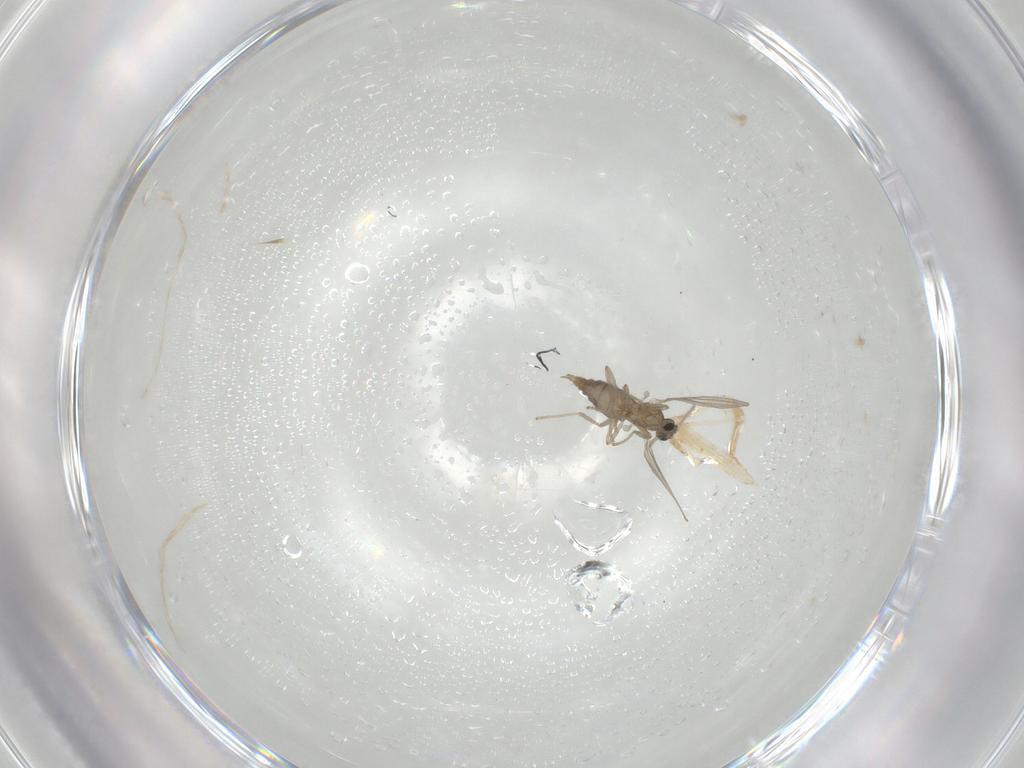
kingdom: Animalia
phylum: Arthropoda
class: Insecta
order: Diptera
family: Cecidomyiidae
